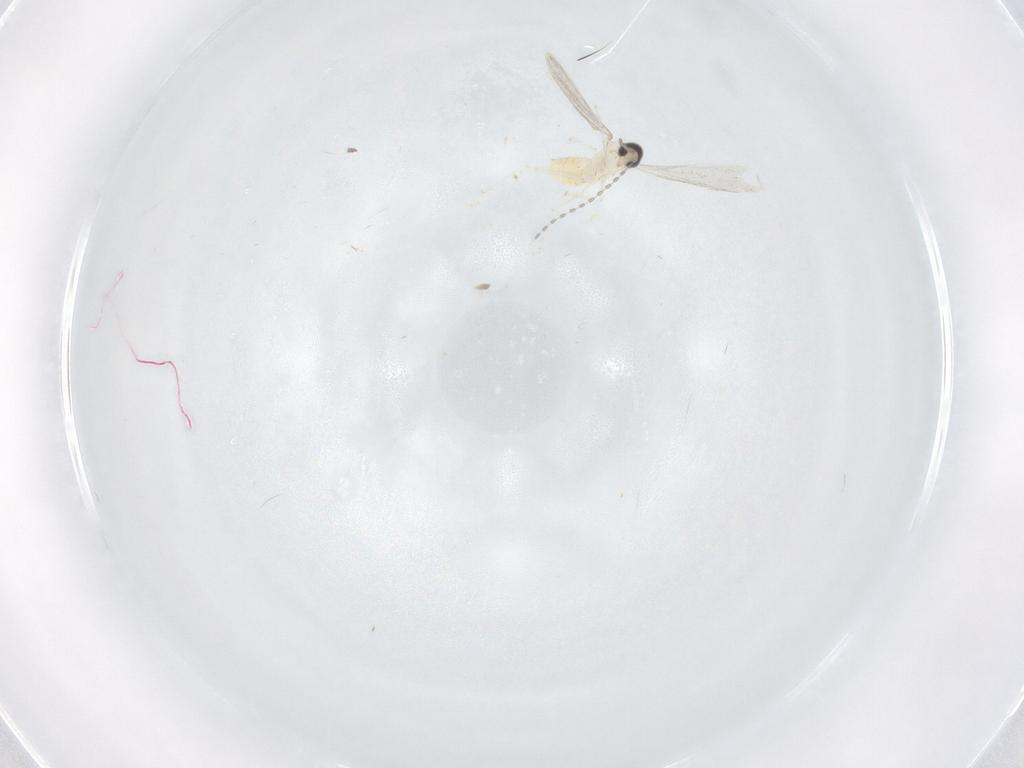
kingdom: Animalia
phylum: Arthropoda
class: Insecta
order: Diptera
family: Cecidomyiidae
